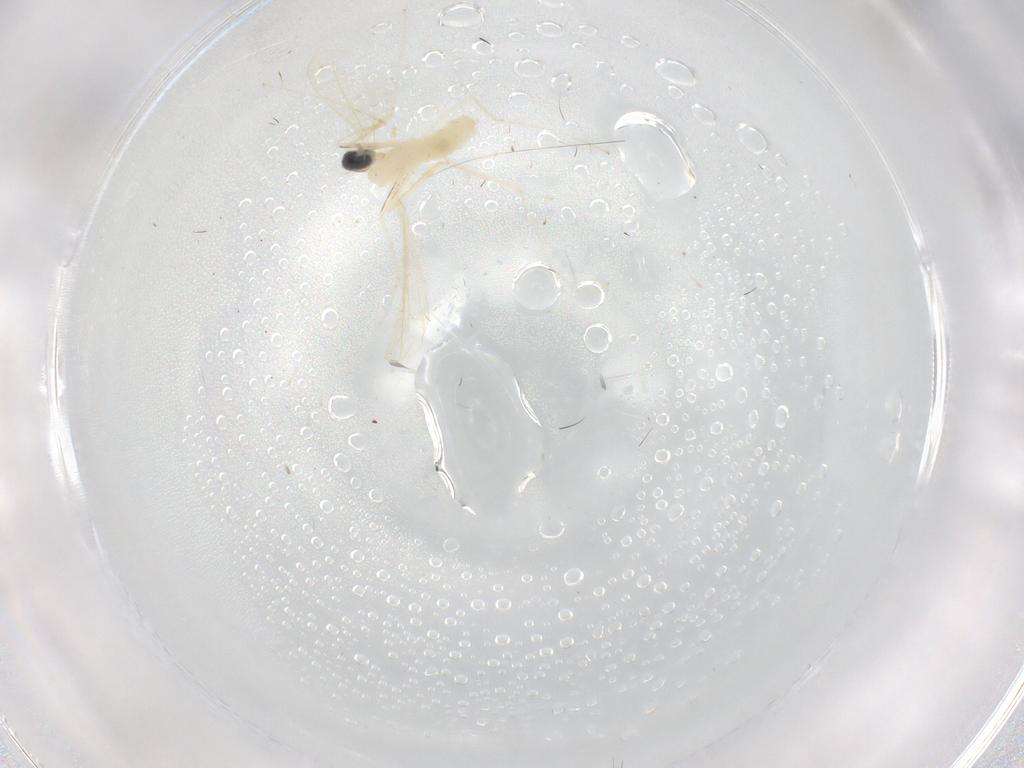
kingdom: Animalia
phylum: Arthropoda
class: Insecta
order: Diptera
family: Cecidomyiidae
